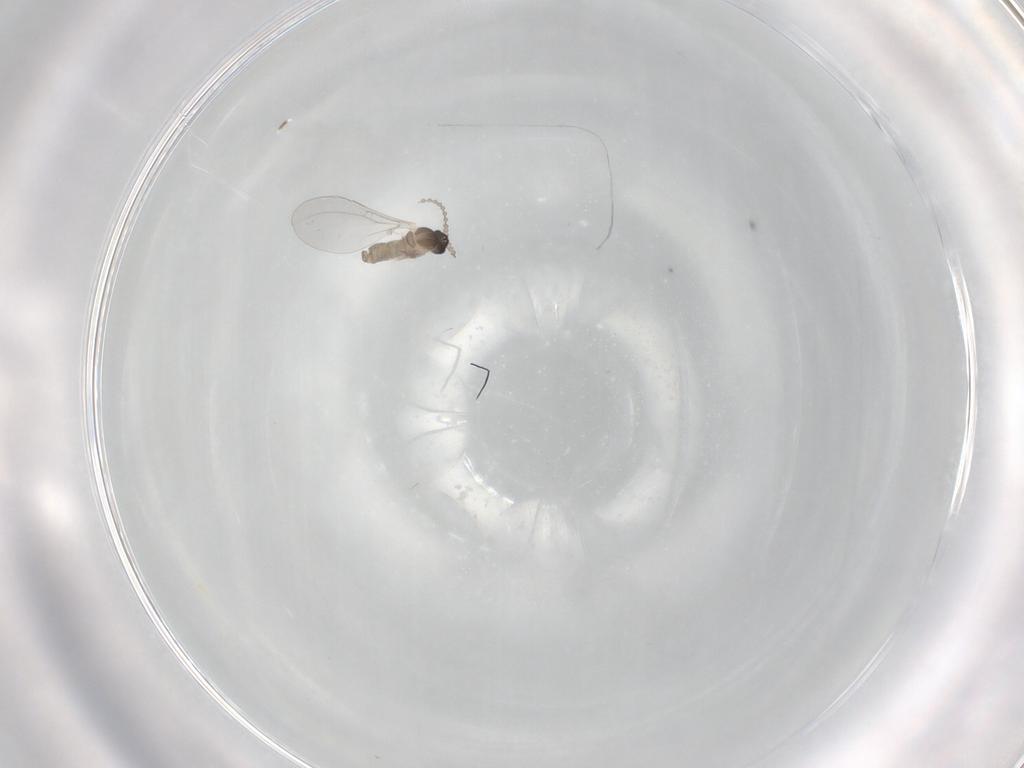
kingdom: Animalia
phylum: Arthropoda
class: Insecta
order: Diptera
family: Cecidomyiidae
